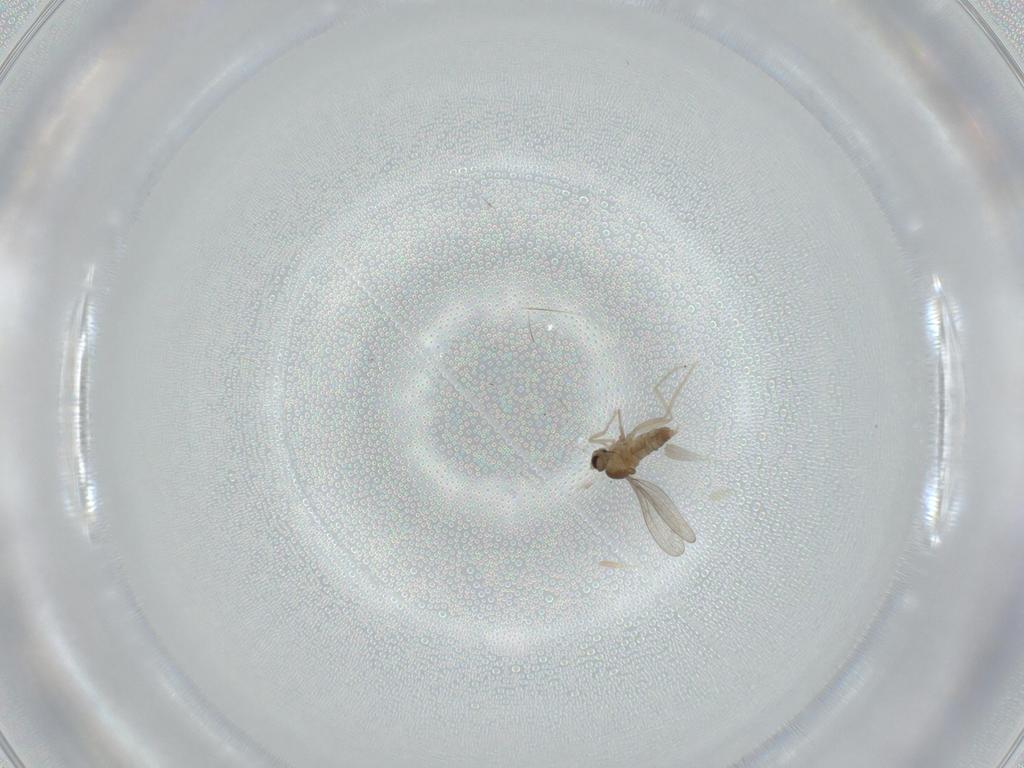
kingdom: Animalia
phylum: Arthropoda
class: Insecta
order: Diptera
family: Cecidomyiidae
